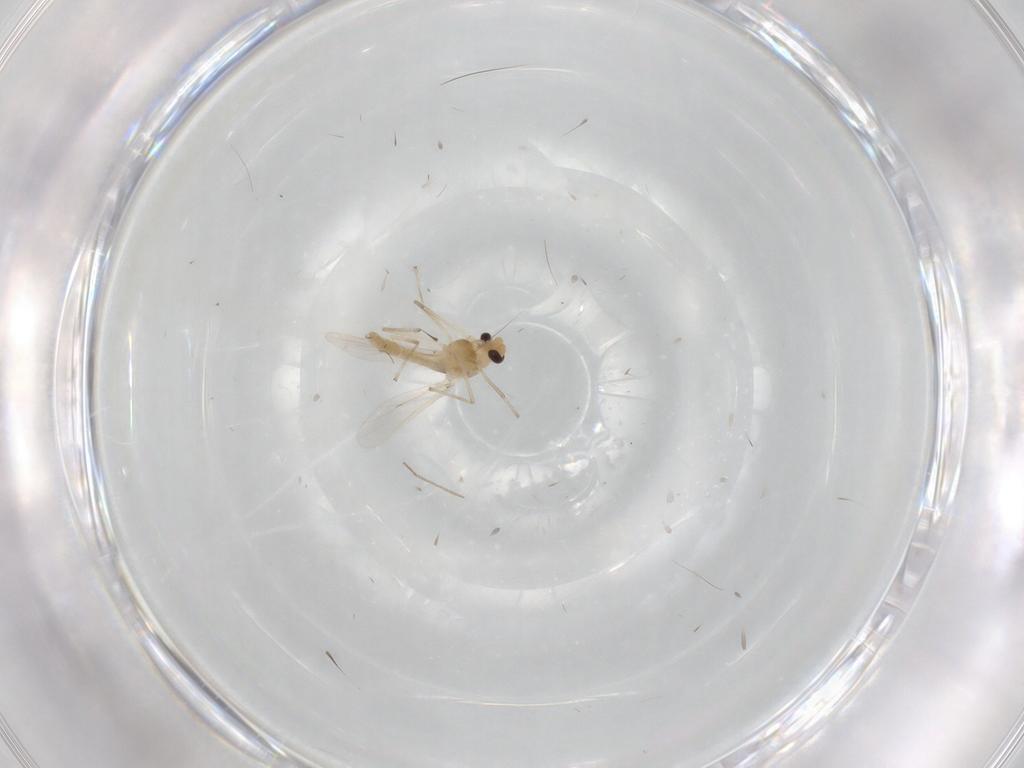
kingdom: Animalia
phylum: Arthropoda
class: Insecta
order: Diptera
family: Chironomidae
